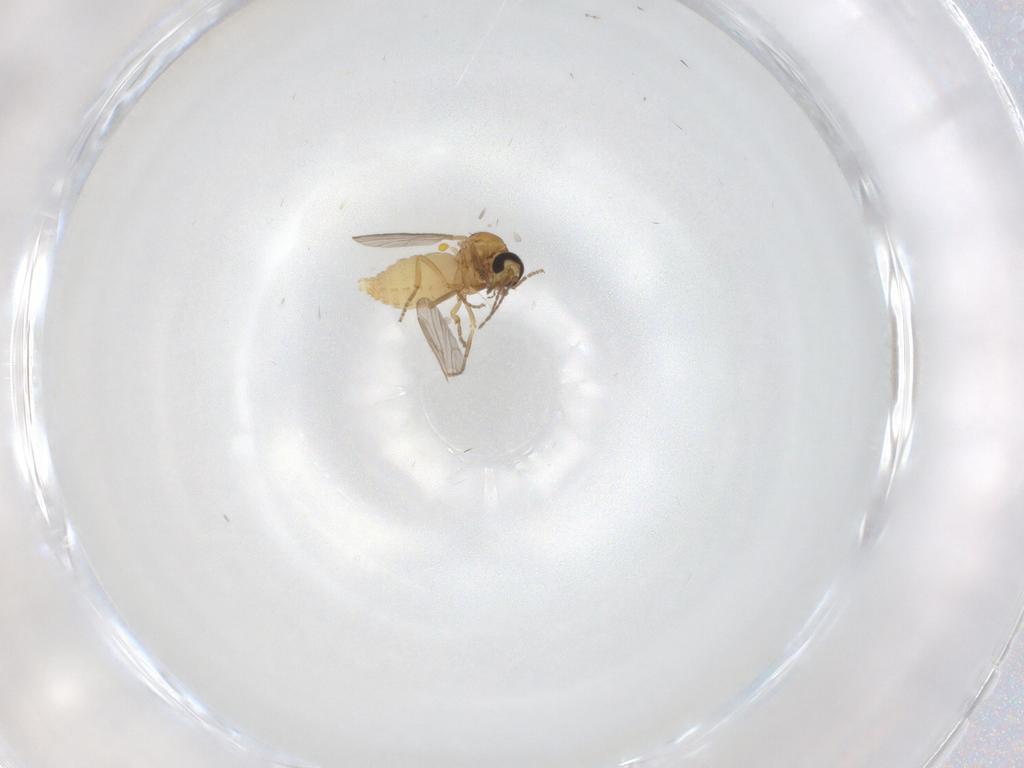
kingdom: Animalia
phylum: Arthropoda
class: Insecta
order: Diptera
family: Ceratopogonidae
